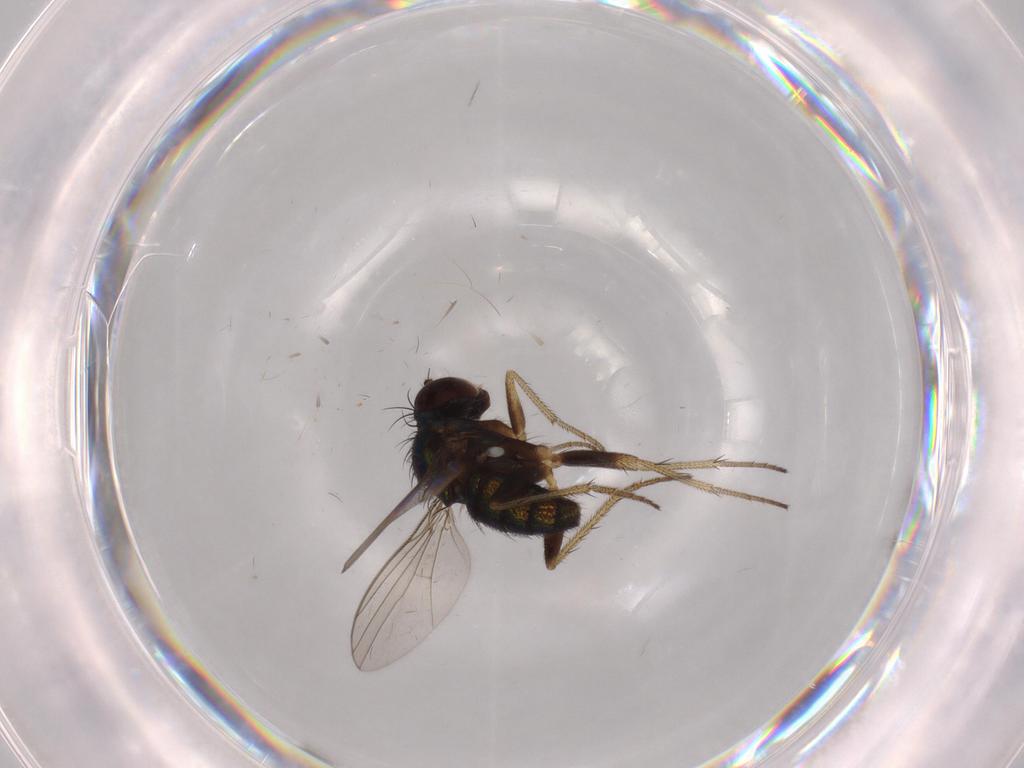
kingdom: Animalia
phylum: Arthropoda
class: Insecta
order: Diptera
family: Dolichopodidae
